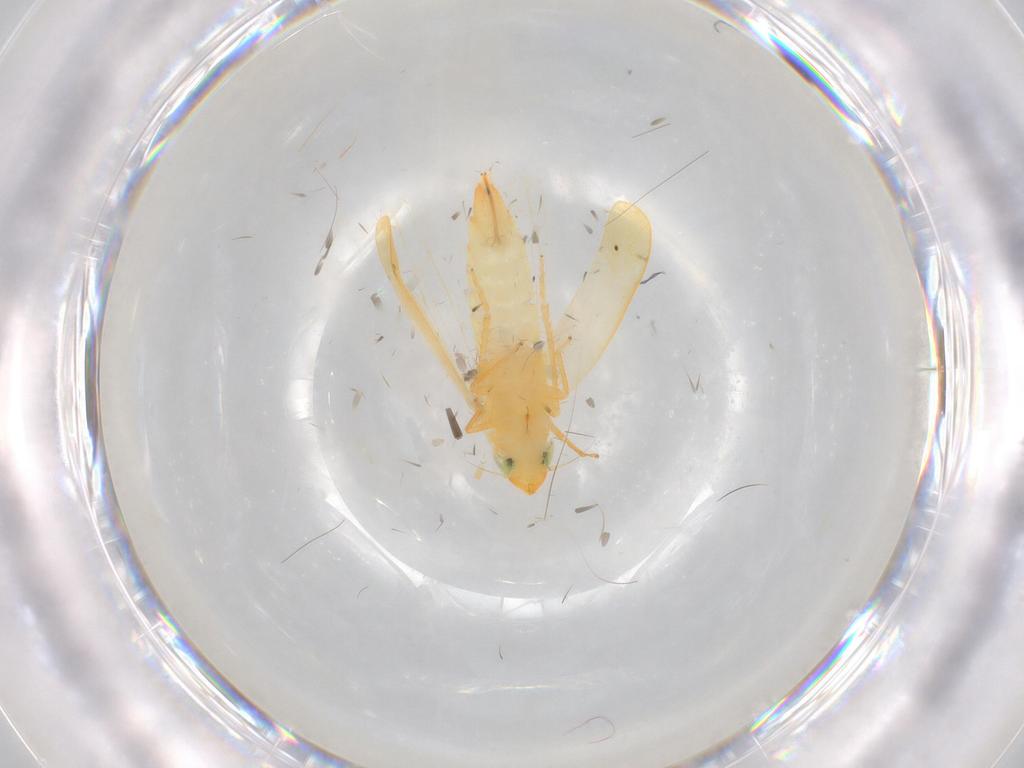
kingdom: Animalia
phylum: Arthropoda
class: Insecta
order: Hemiptera
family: Cicadellidae
